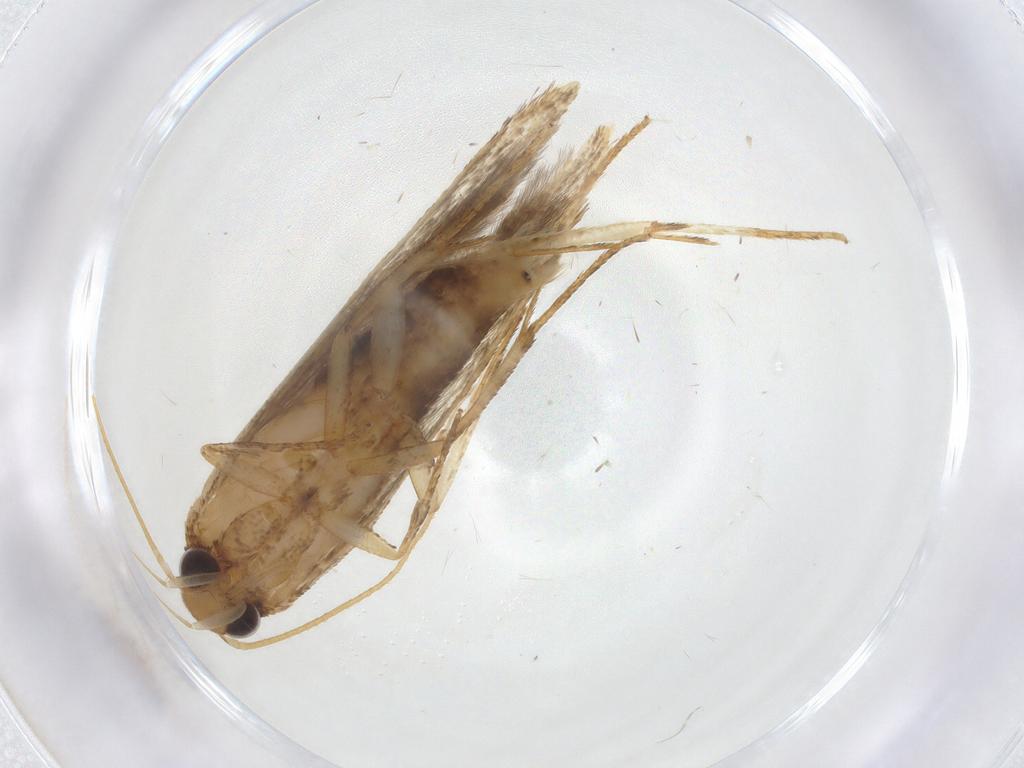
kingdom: Animalia
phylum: Arthropoda
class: Insecta
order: Lepidoptera
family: Cosmopterigidae
